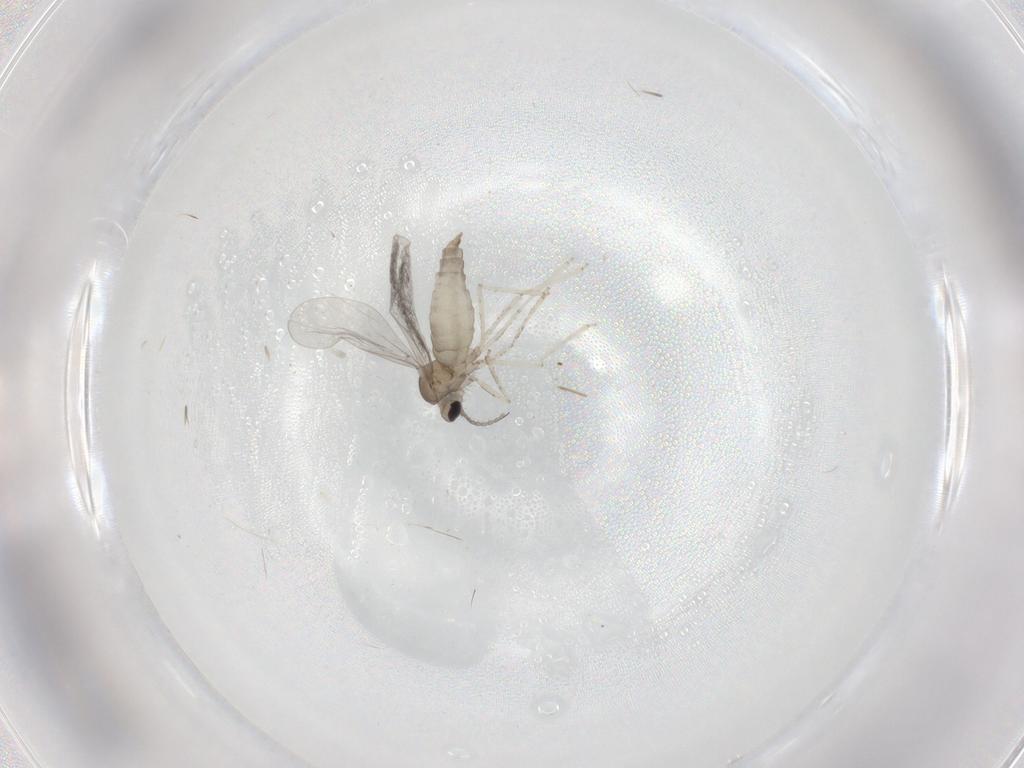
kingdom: Animalia
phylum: Arthropoda
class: Insecta
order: Diptera
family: Cecidomyiidae
